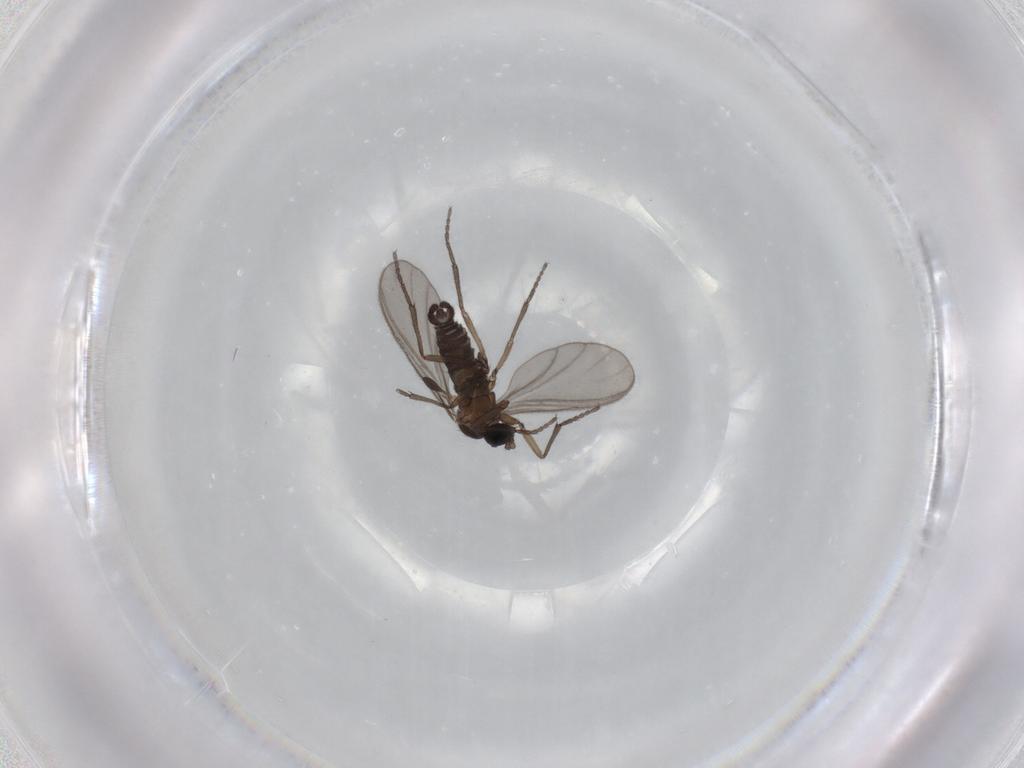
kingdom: Animalia
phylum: Arthropoda
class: Insecta
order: Diptera
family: Sciaridae
